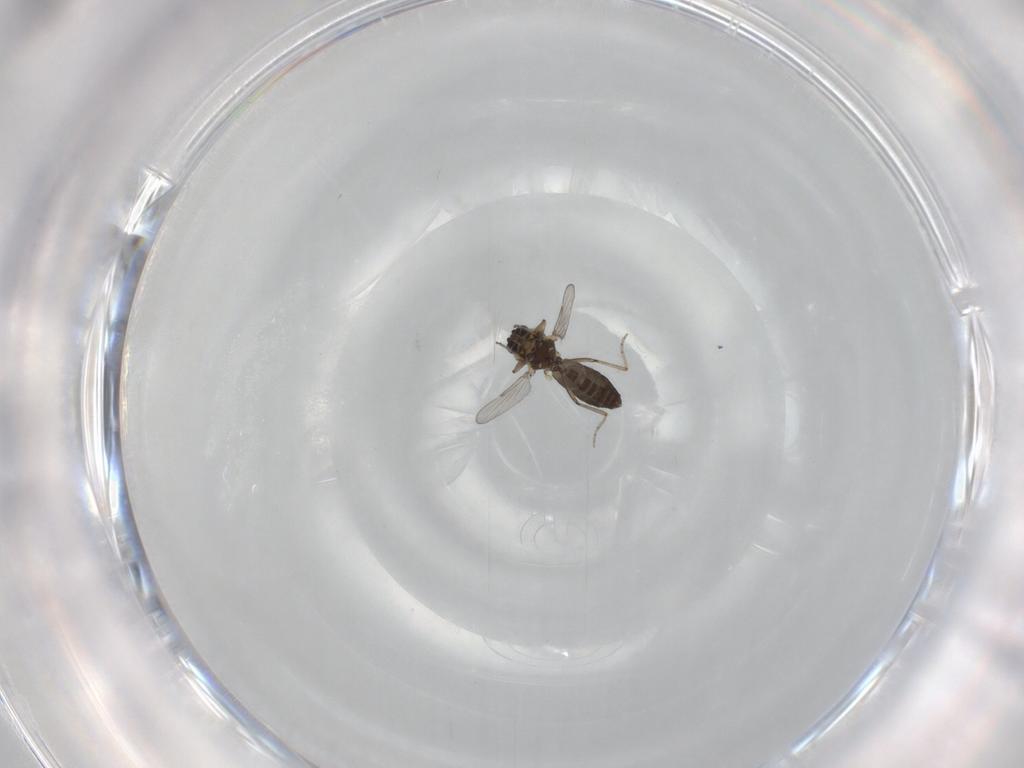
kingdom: Animalia
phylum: Arthropoda
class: Insecta
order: Diptera
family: Ceratopogonidae
